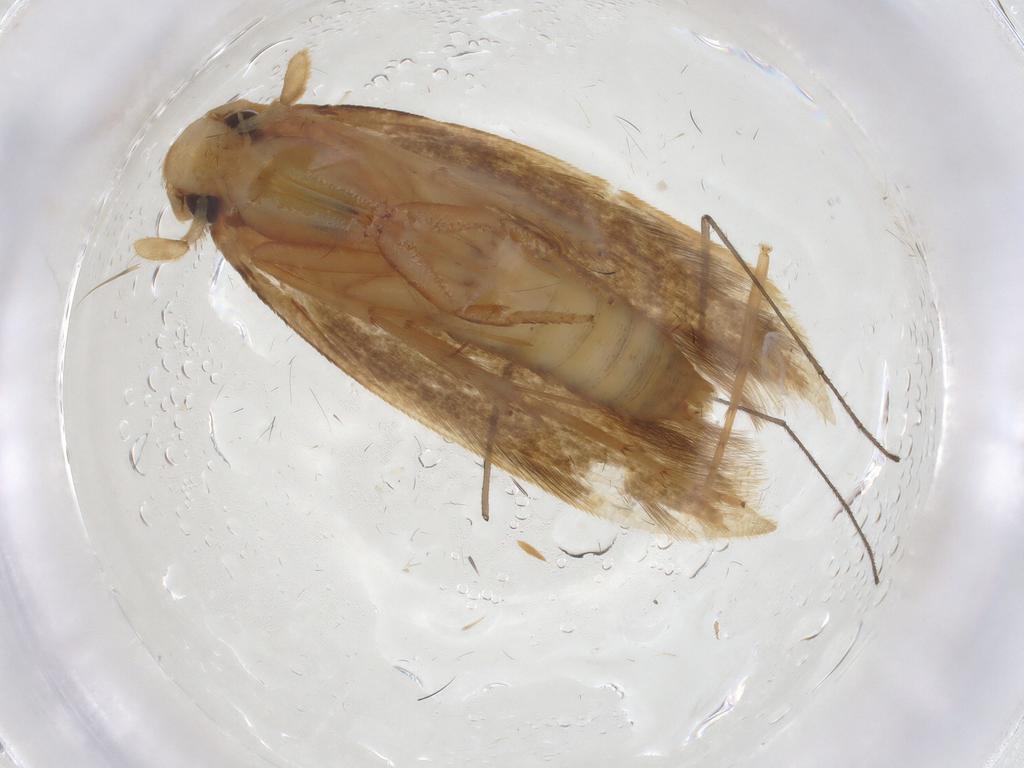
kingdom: Animalia
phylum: Arthropoda
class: Insecta
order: Lepidoptera
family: Tineidae
